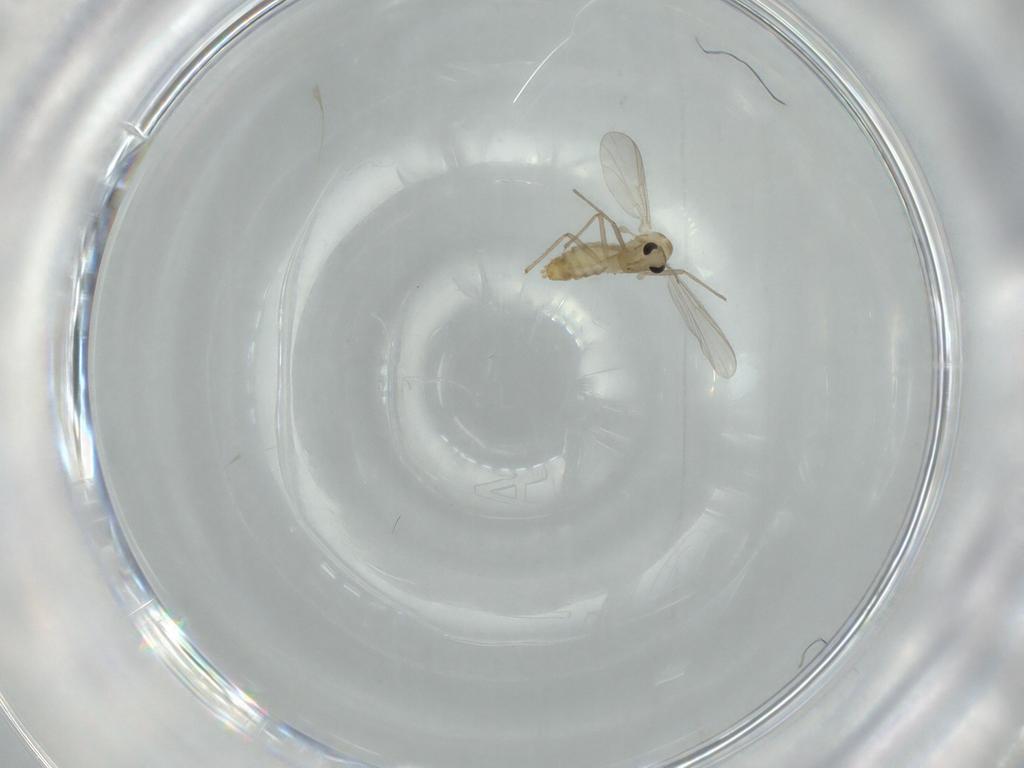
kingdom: Animalia
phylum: Arthropoda
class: Insecta
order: Diptera
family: Chironomidae
